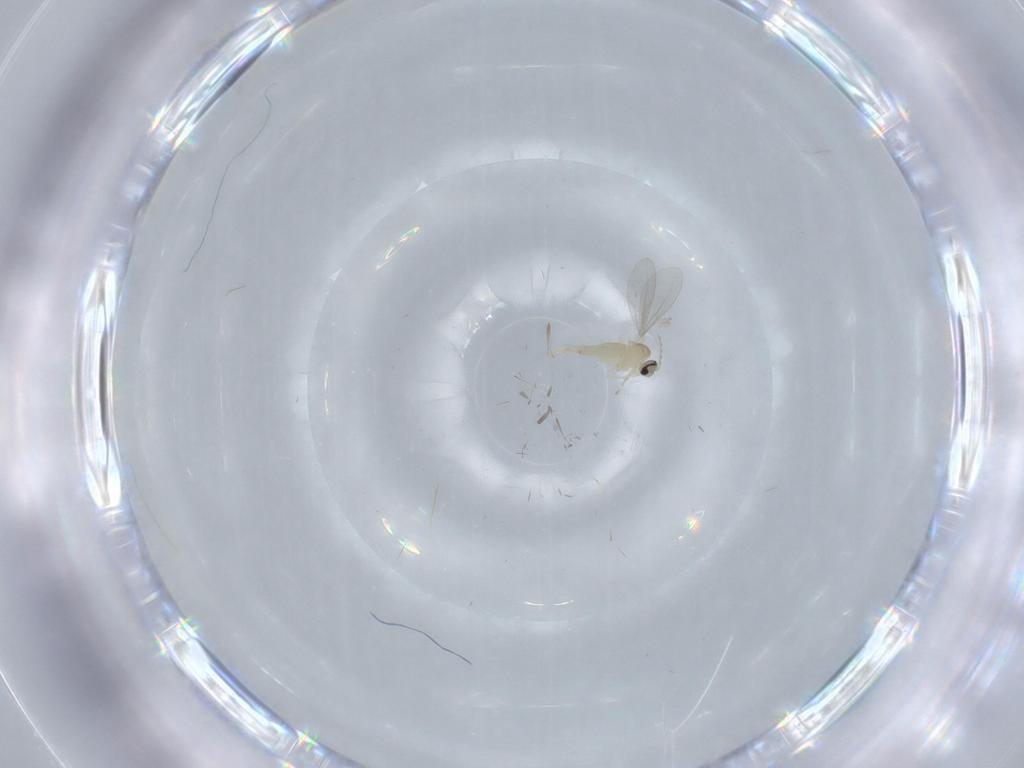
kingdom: Animalia
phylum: Arthropoda
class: Insecta
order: Diptera
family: Cecidomyiidae
